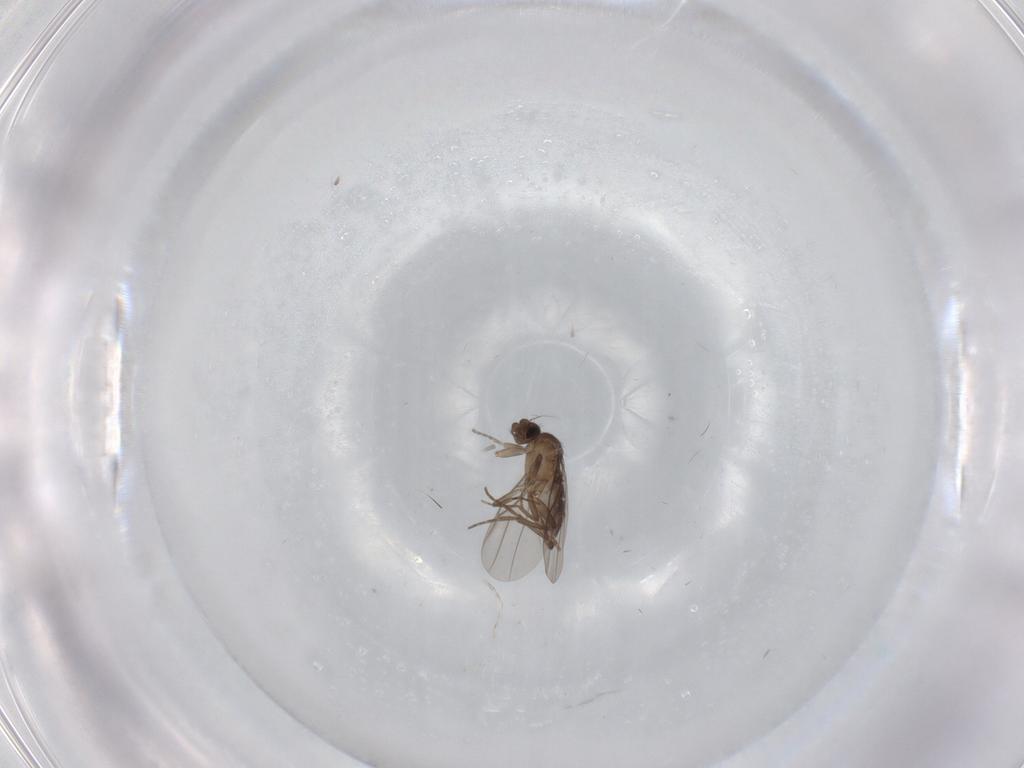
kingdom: Animalia
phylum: Arthropoda
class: Insecta
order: Diptera
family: Cecidomyiidae
